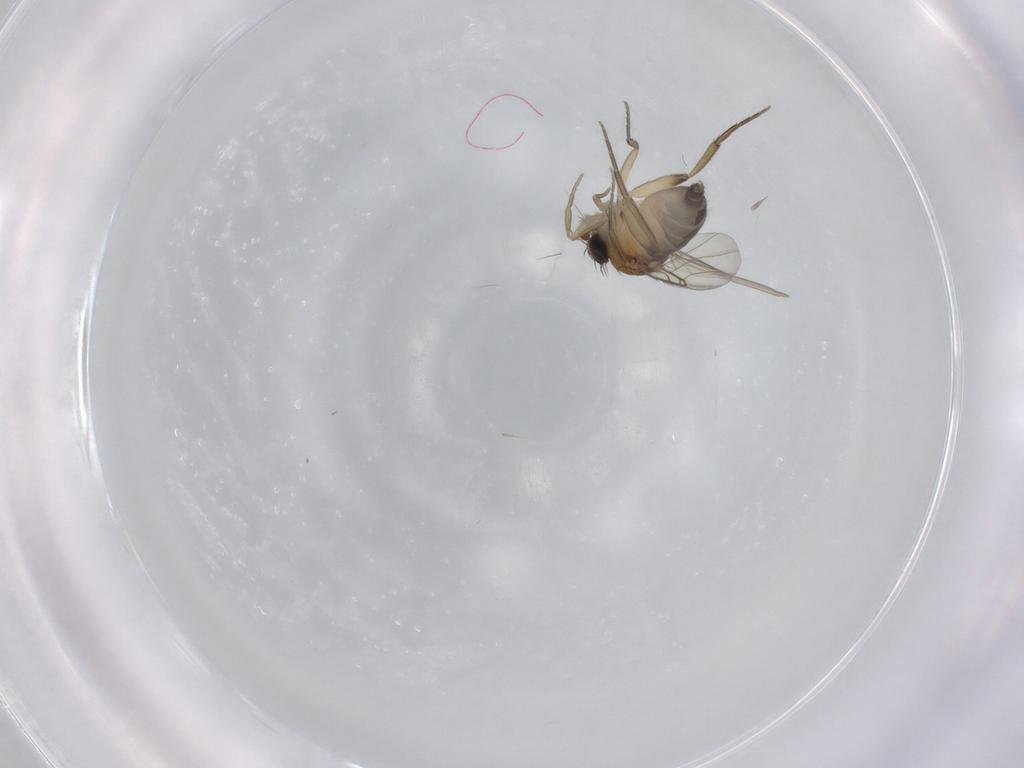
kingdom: Animalia
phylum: Arthropoda
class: Insecta
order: Diptera
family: Phoridae
